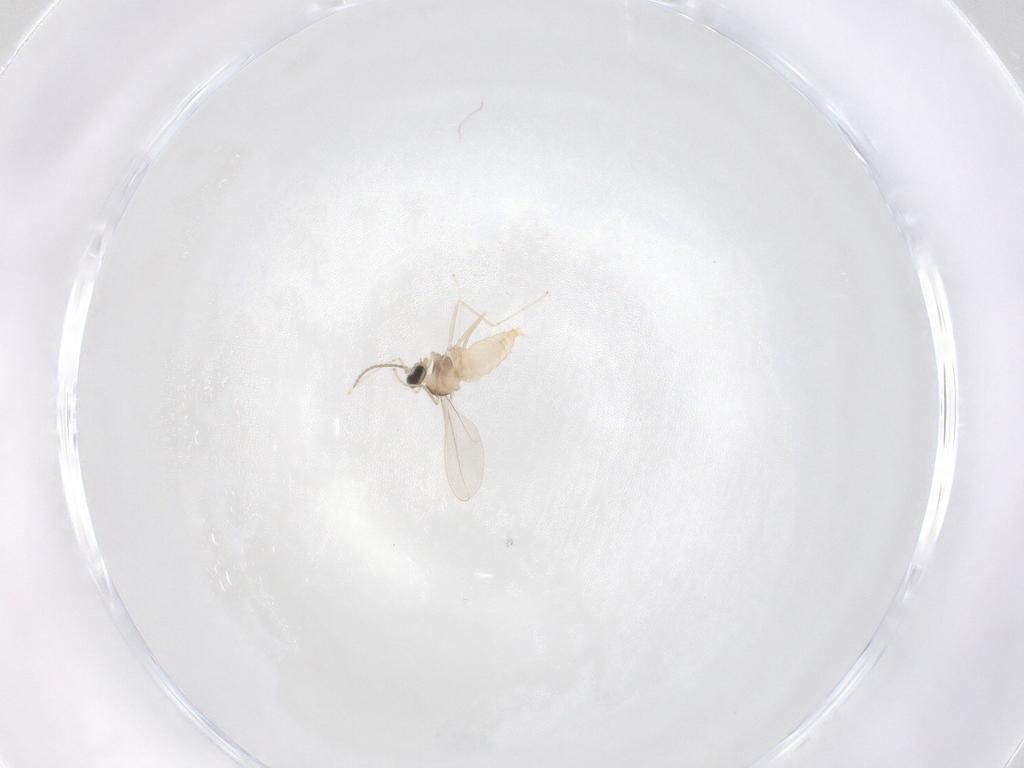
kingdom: Animalia
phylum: Arthropoda
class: Insecta
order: Diptera
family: Cecidomyiidae
